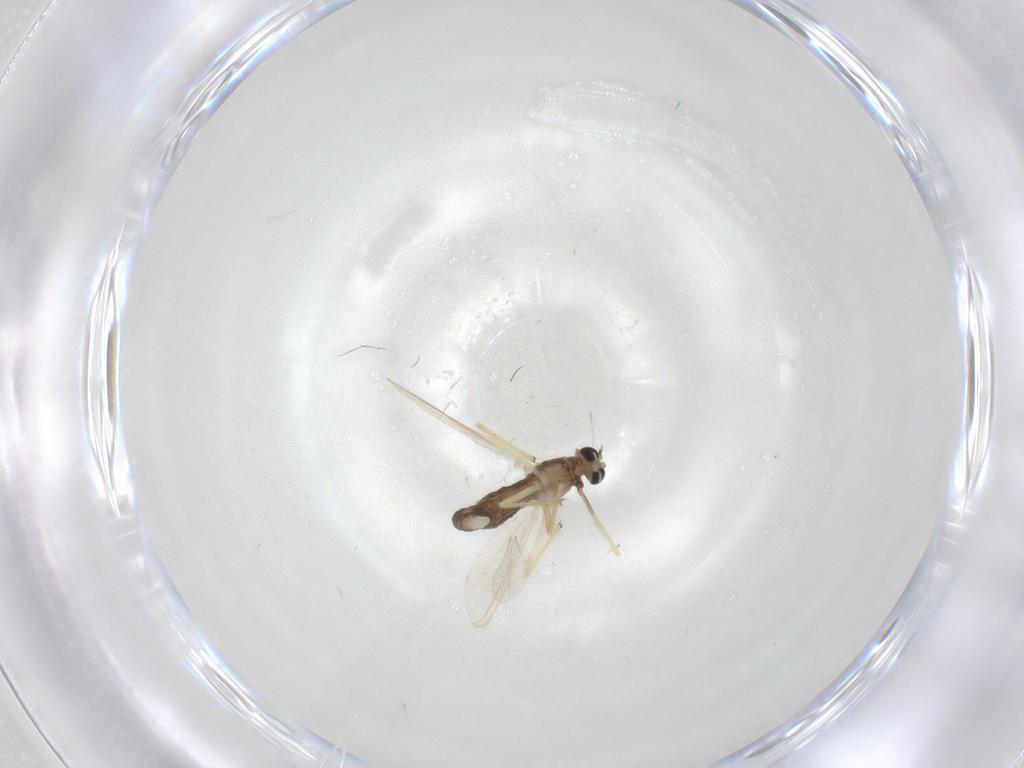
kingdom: Animalia
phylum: Arthropoda
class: Insecta
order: Diptera
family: Chironomidae
